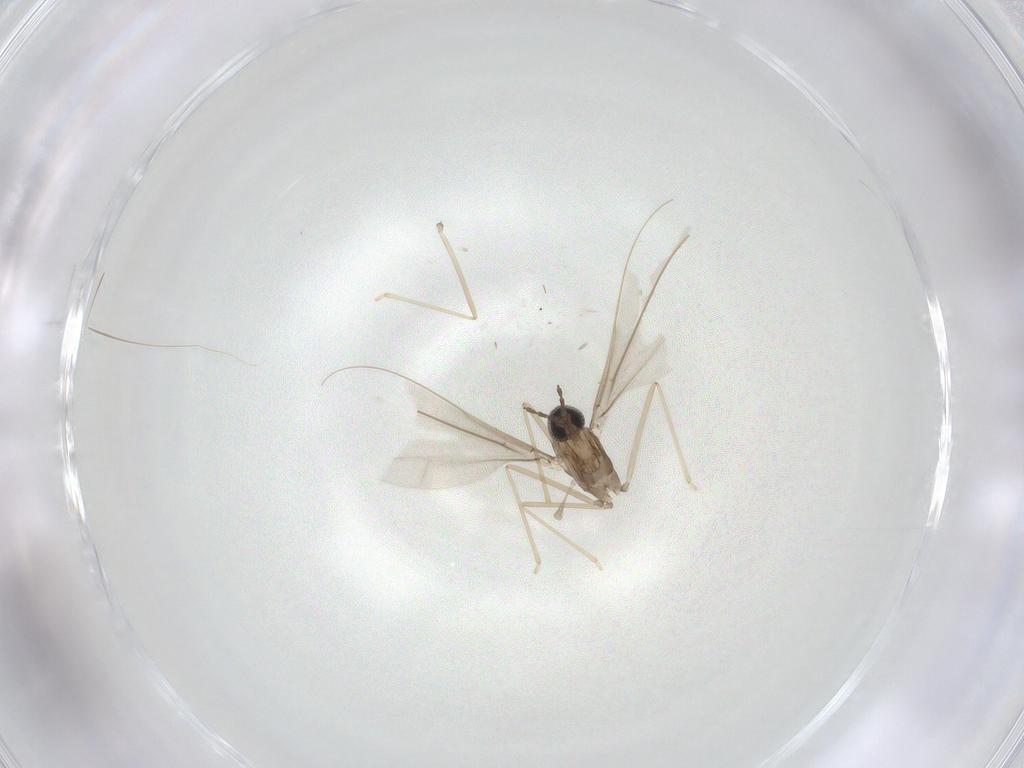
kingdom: Animalia
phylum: Arthropoda
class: Insecta
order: Diptera
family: Cecidomyiidae
